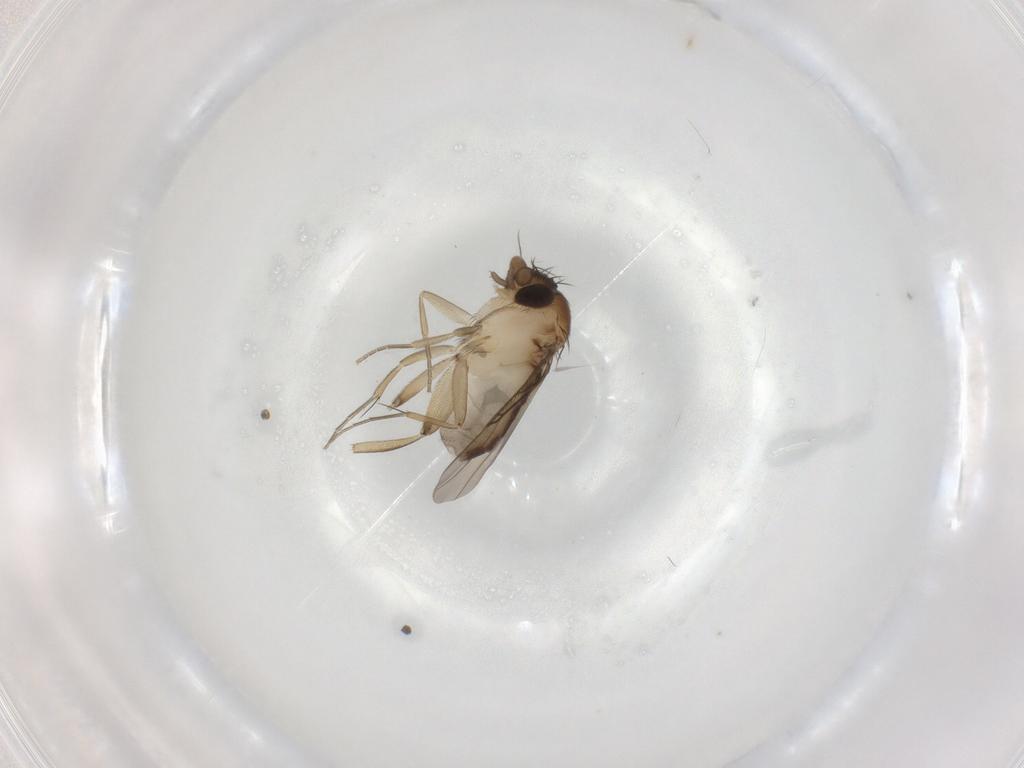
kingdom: Animalia
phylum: Arthropoda
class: Insecta
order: Diptera
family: Phoridae
